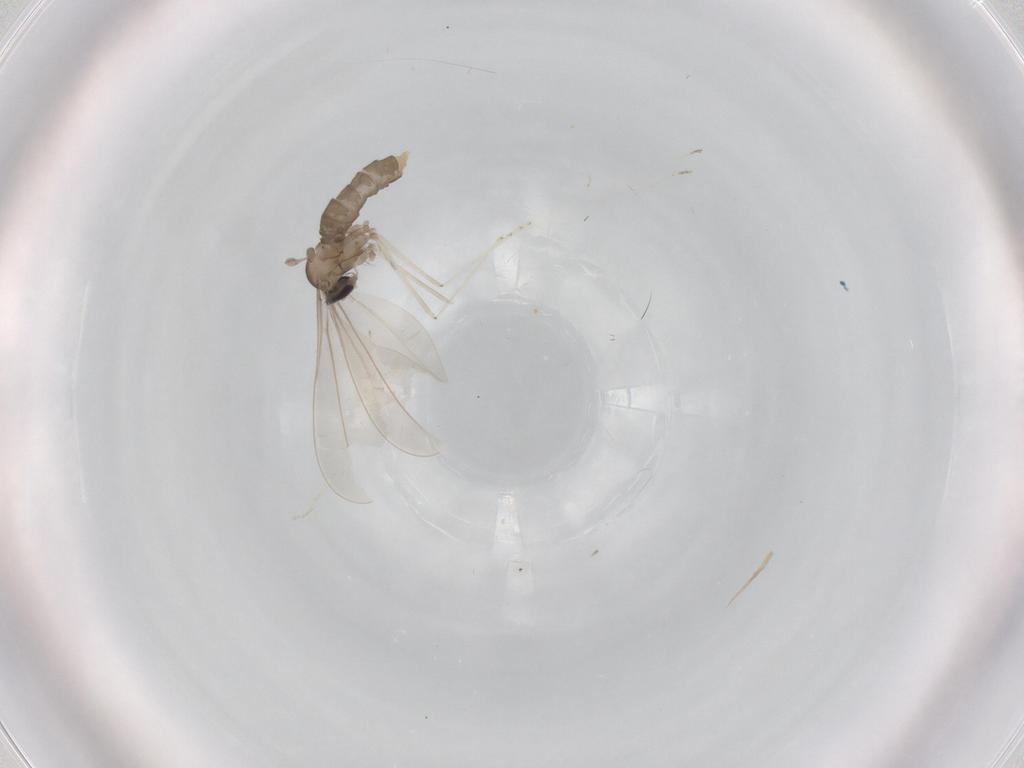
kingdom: Animalia
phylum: Arthropoda
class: Insecta
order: Diptera
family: Cecidomyiidae
